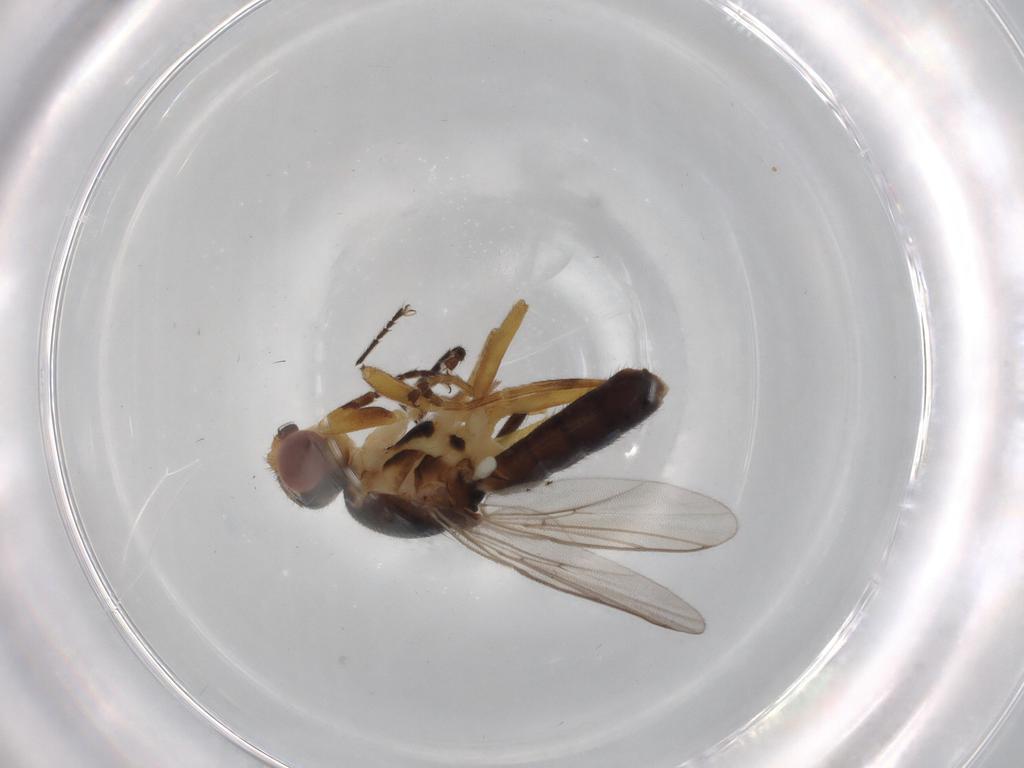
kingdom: Animalia
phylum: Arthropoda
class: Insecta
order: Diptera
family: Chloropidae
